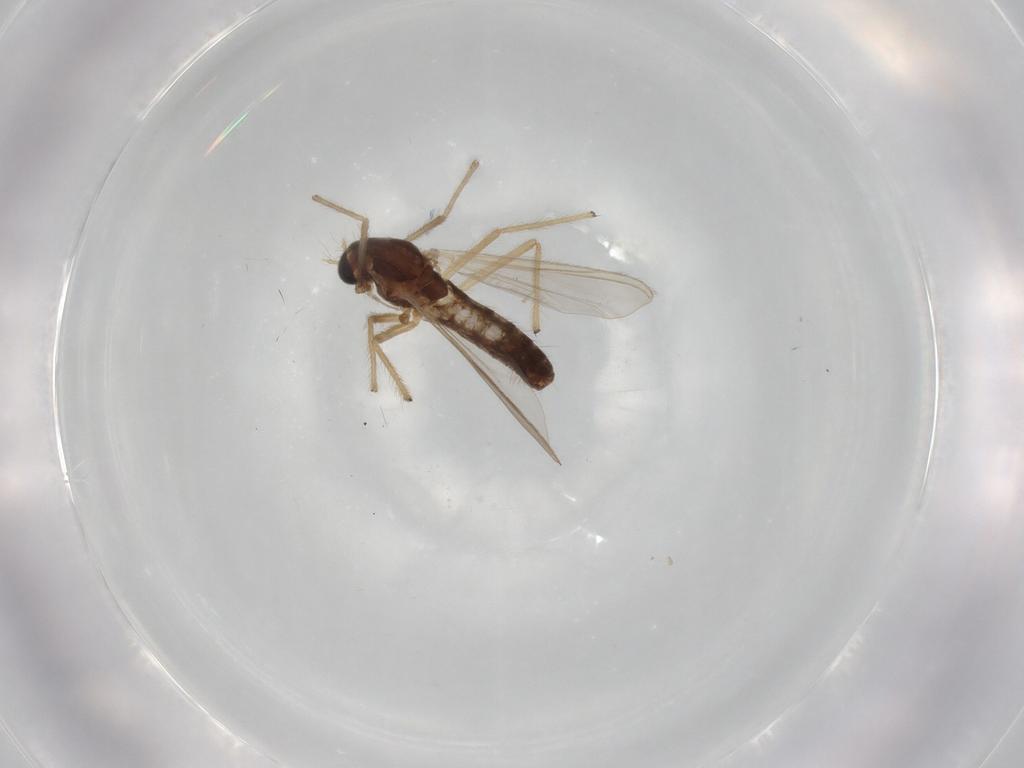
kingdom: Animalia
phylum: Arthropoda
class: Insecta
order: Diptera
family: Chironomidae
